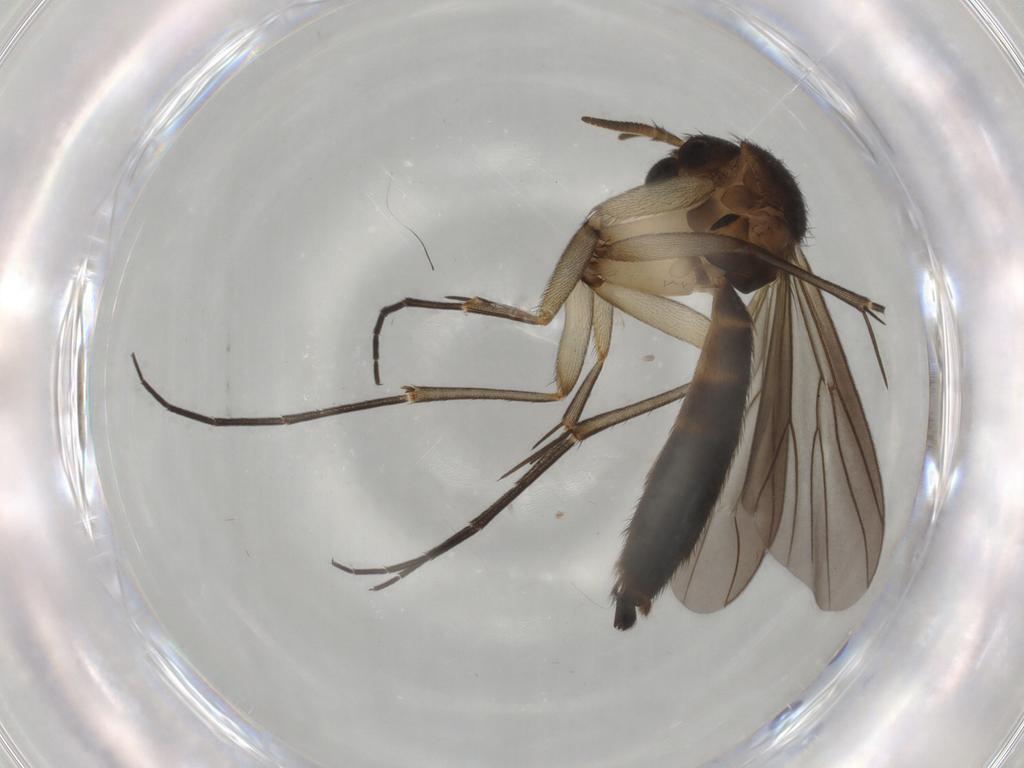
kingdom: Animalia
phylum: Arthropoda
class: Insecta
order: Diptera
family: Mycetophilidae
